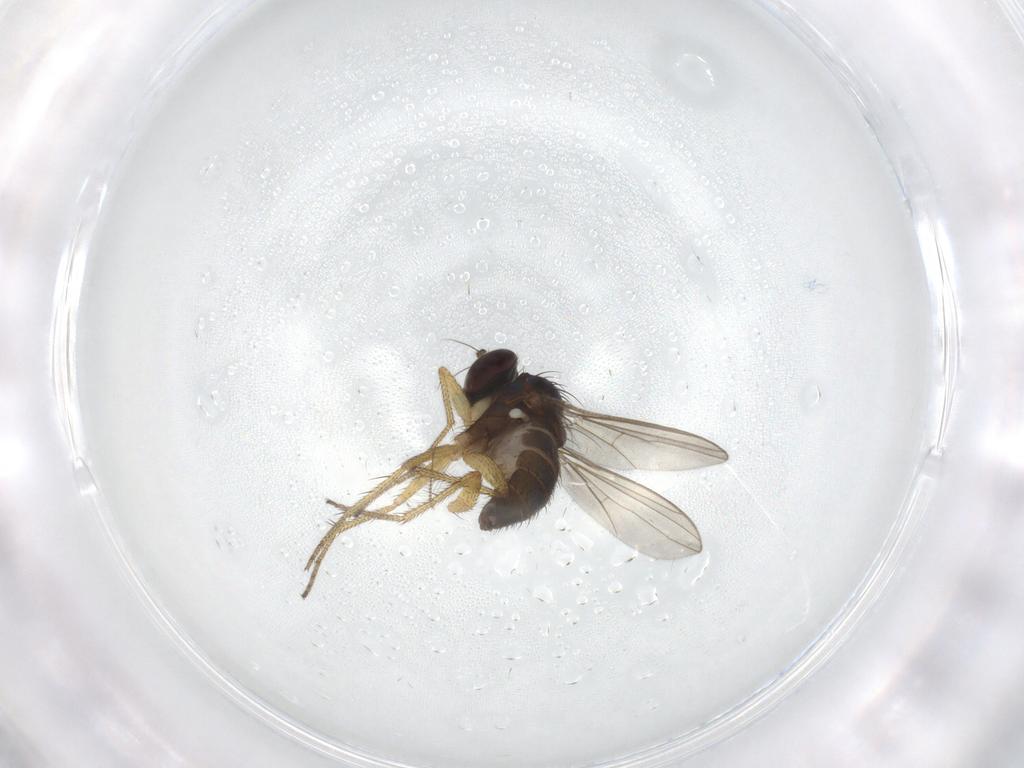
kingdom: Animalia
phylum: Arthropoda
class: Insecta
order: Diptera
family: Chironomidae
